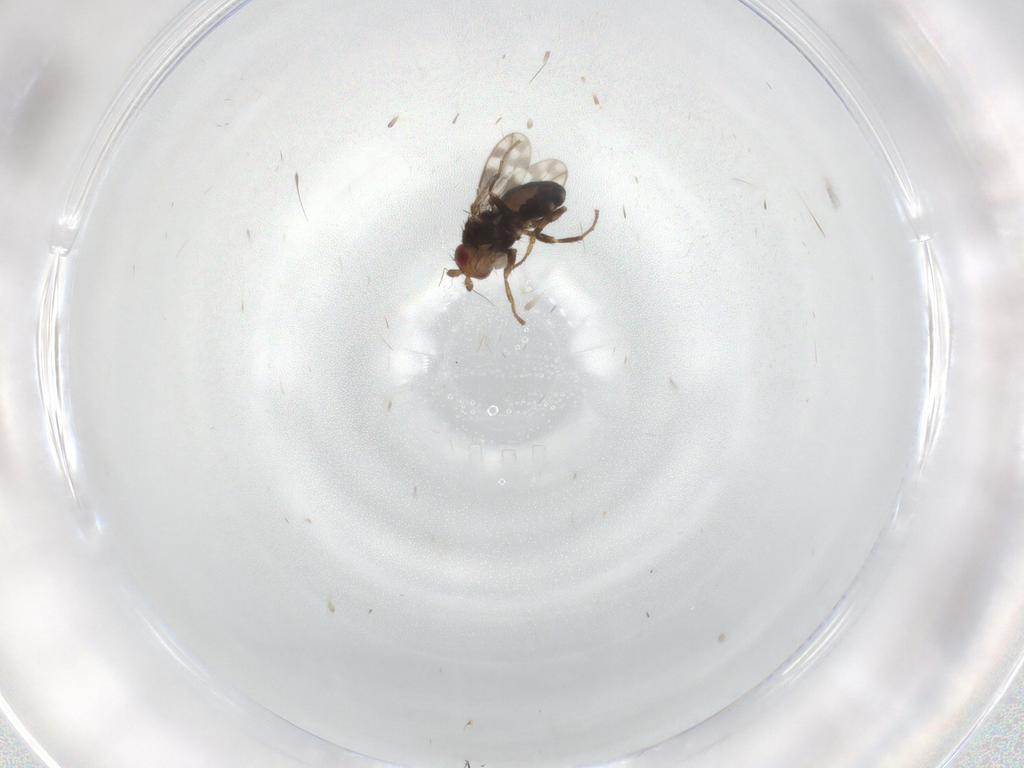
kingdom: Animalia
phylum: Arthropoda
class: Insecta
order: Diptera
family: Sphaeroceridae
